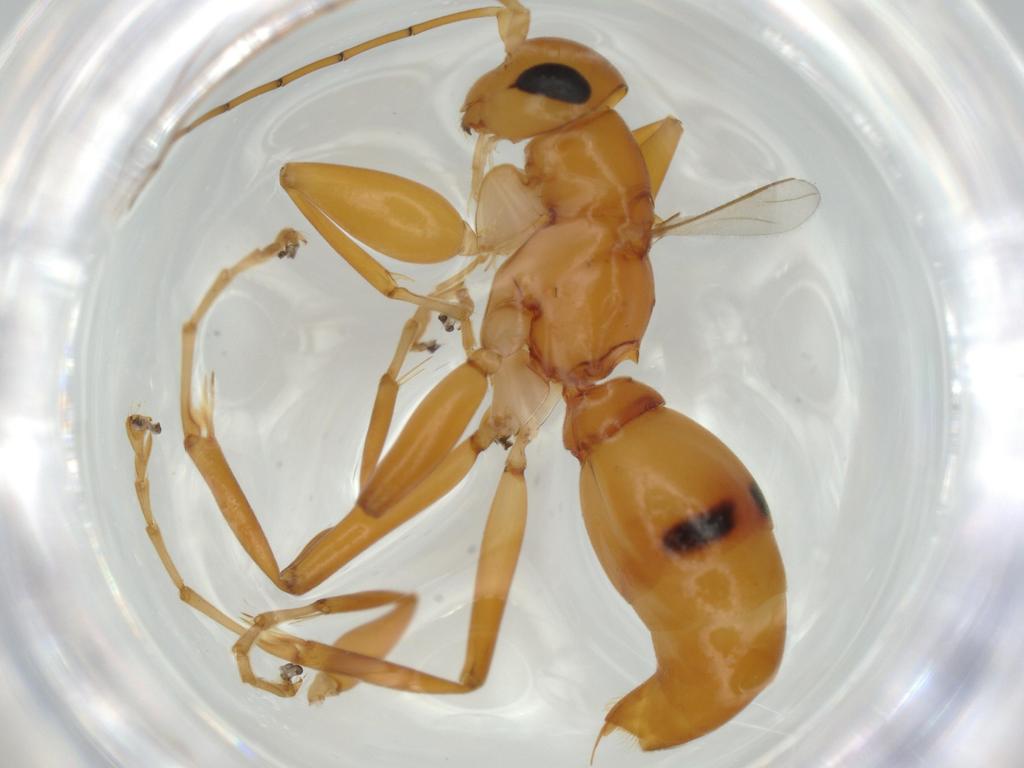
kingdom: Animalia
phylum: Arthropoda
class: Insecta
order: Hymenoptera
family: Rhopalosomatidae
